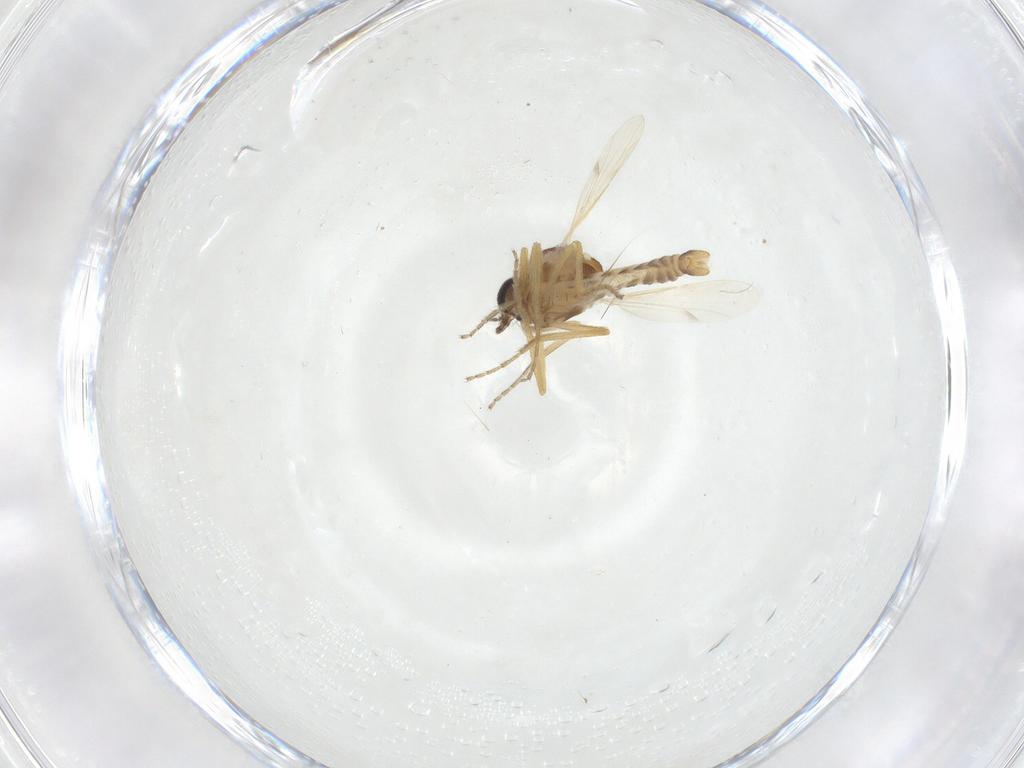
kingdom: Animalia
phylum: Arthropoda
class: Insecta
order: Diptera
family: Ceratopogonidae
